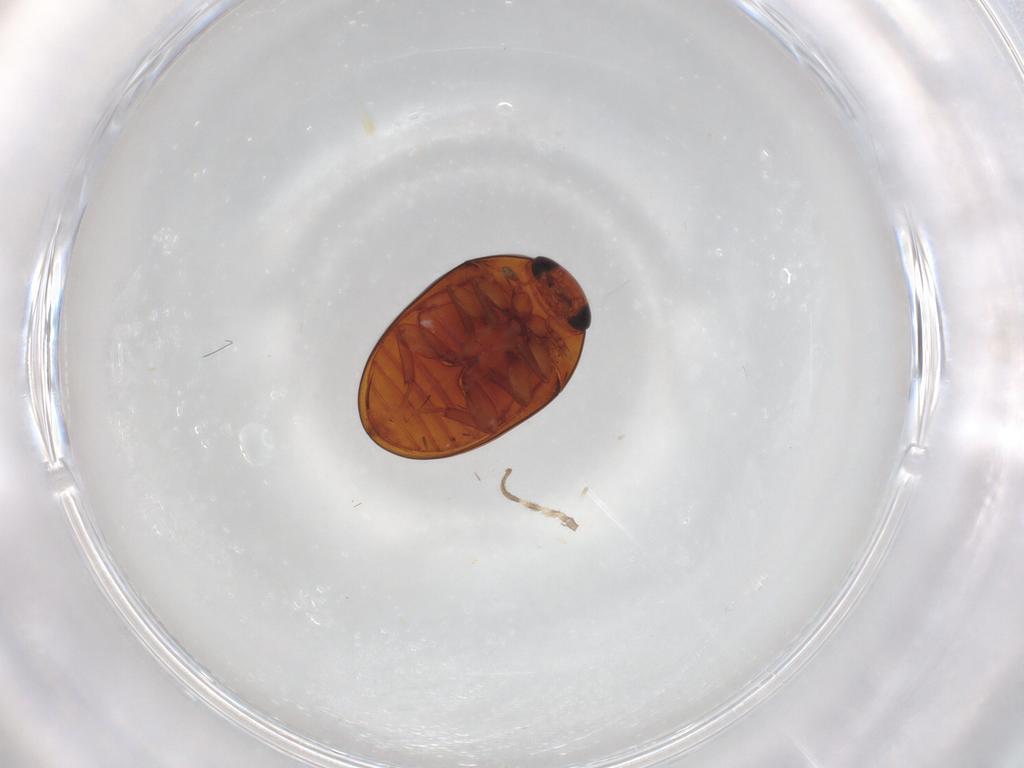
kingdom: Animalia
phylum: Arthropoda
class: Insecta
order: Coleoptera
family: Phalacridae
